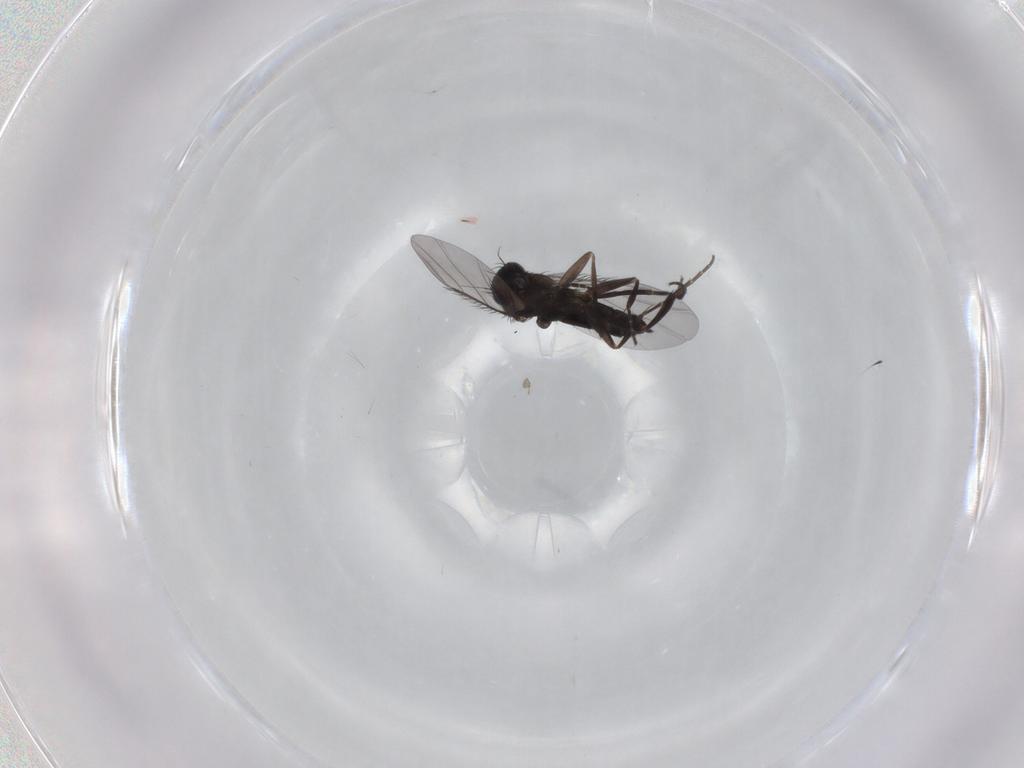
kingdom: Animalia
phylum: Arthropoda
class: Insecta
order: Diptera
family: Phoridae
